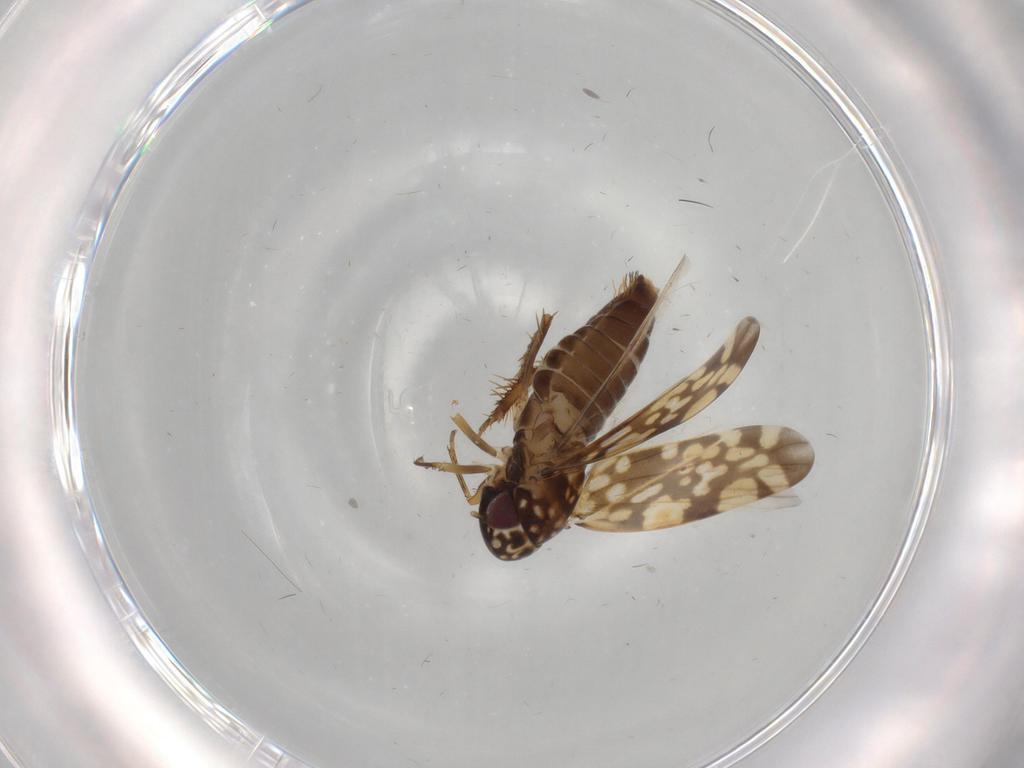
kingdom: Animalia
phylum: Arthropoda
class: Insecta
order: Hemiptera
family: Cicadellidae
